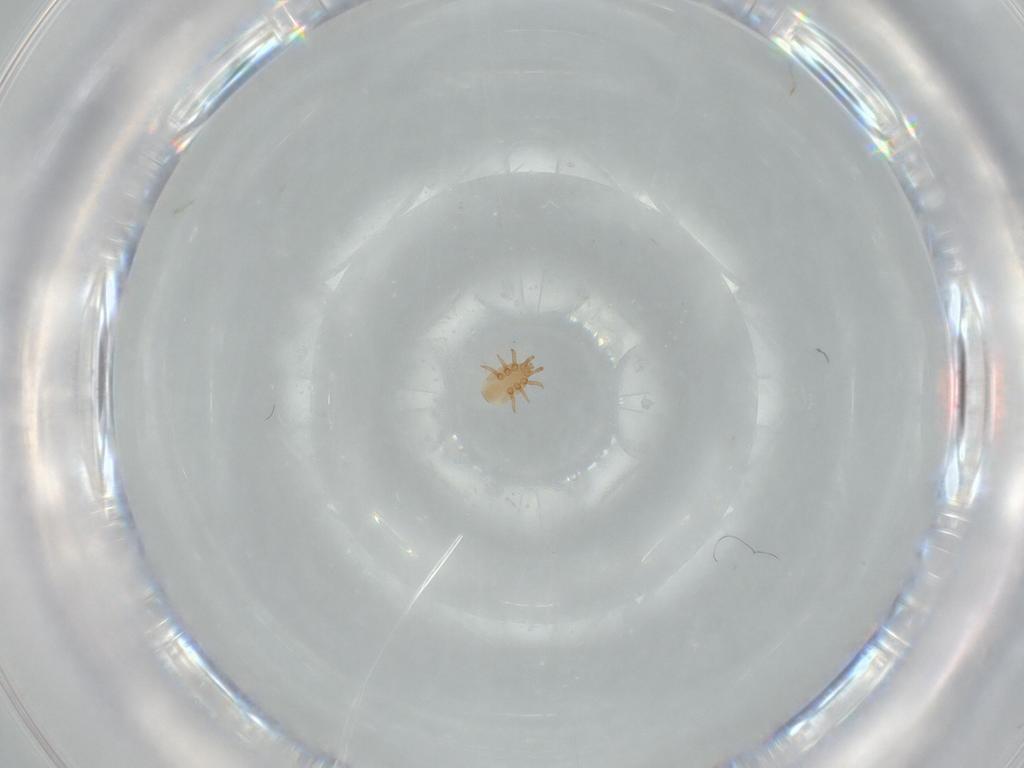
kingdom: Animalia
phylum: Arthropoda
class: Arachnida
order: Mesostigmata
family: Dinychidae
